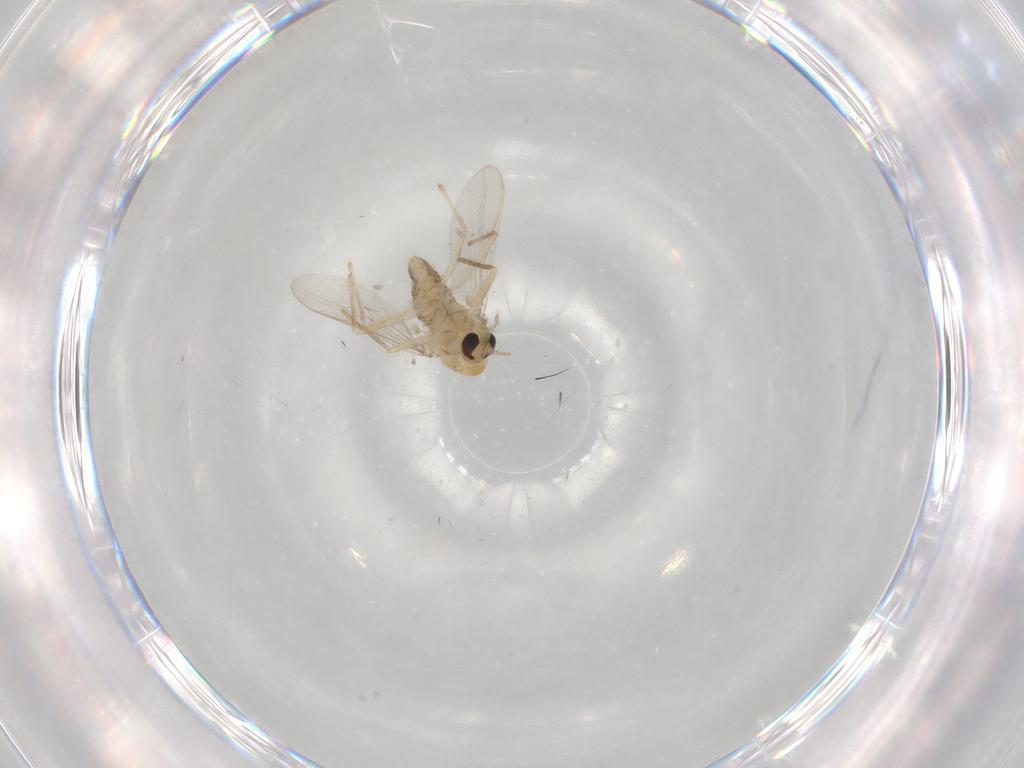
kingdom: Animalia
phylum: Arthropoda
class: Insecta
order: Diptera
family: Chironomidae
